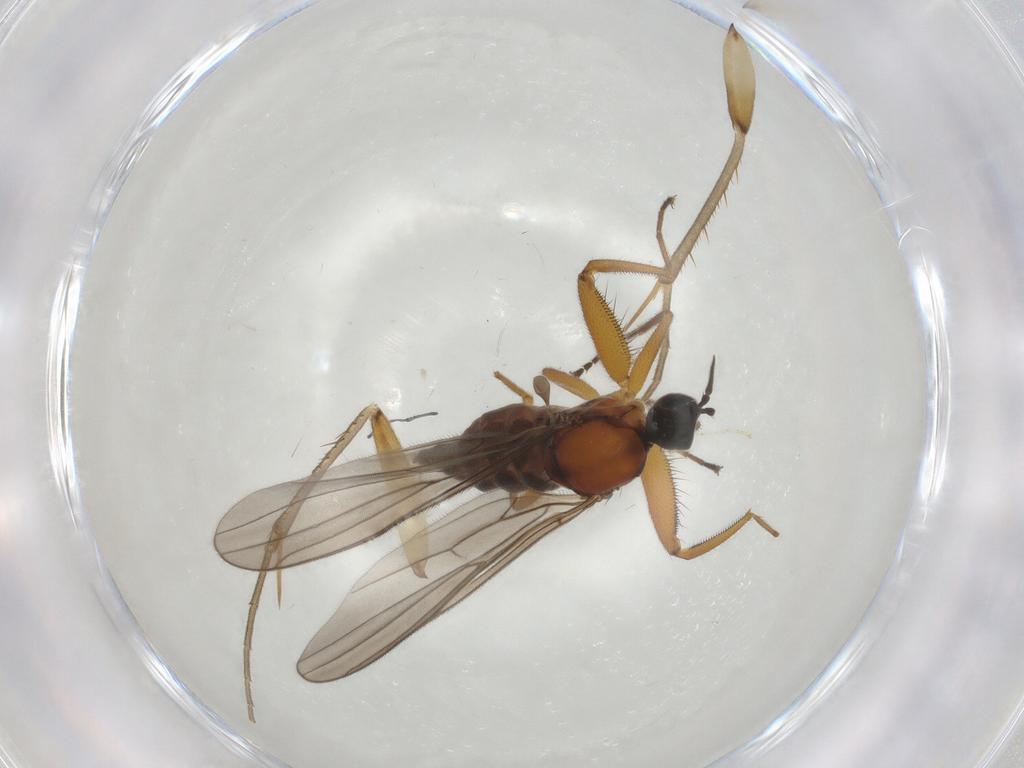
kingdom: Animalia
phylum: Arthropoda
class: Insecta
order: Diptera
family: Hybotidae
